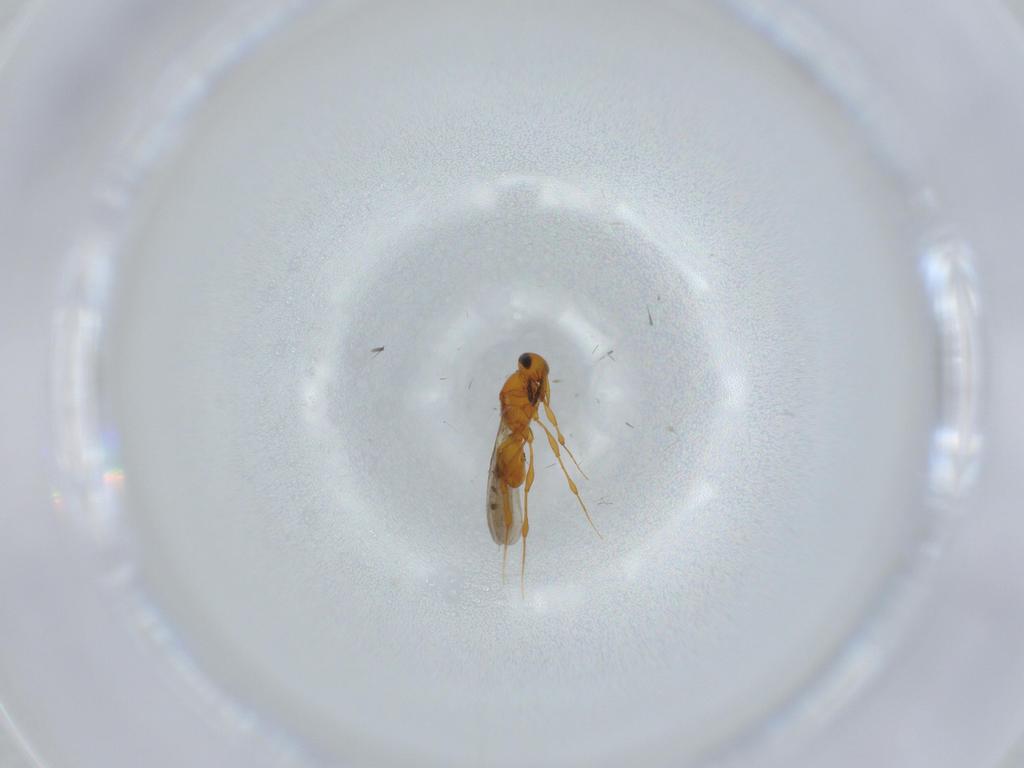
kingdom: Animalia
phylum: Arthropoda
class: Insecta
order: Hymenoptera
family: Platygastridae
